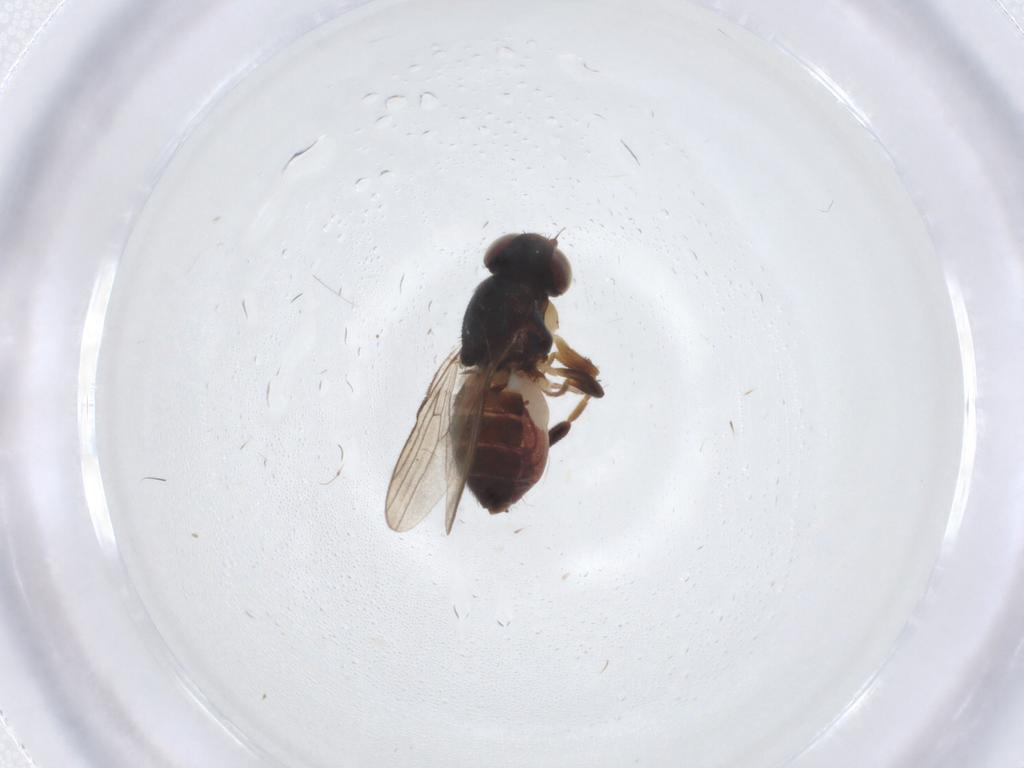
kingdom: Animalia
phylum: Arthropoda
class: Insecta
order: Diptera
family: Chloropidae
